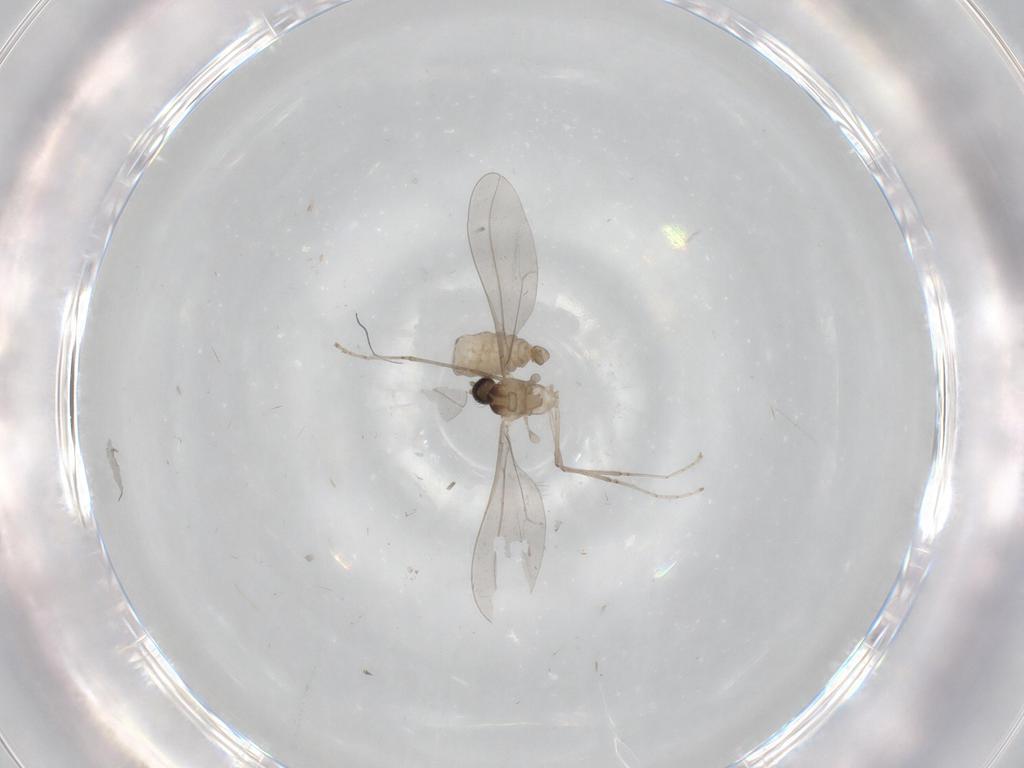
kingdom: Animalia
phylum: Arthropoda
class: Insecta
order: Diptera
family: Cecidomyiidae
